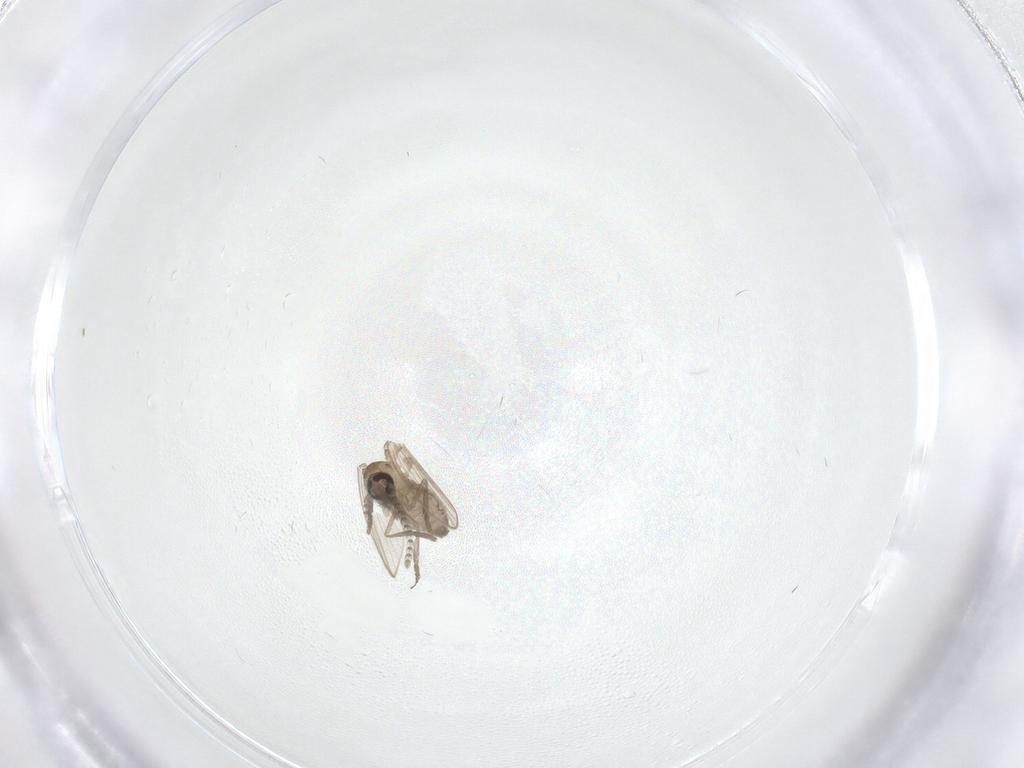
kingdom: Animalia
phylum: Arthropoda
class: Insecta
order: Diptera
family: Psychodidae
